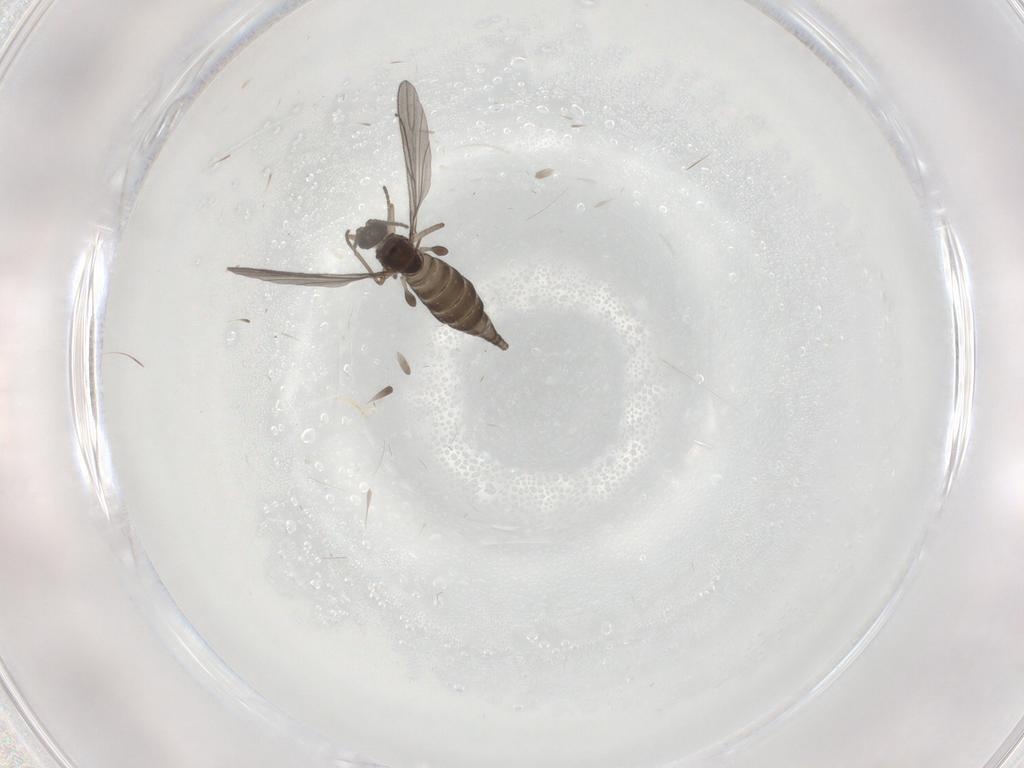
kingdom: Animalia
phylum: Arthropoda
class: Insecta
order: Diptera
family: Sciaridae
